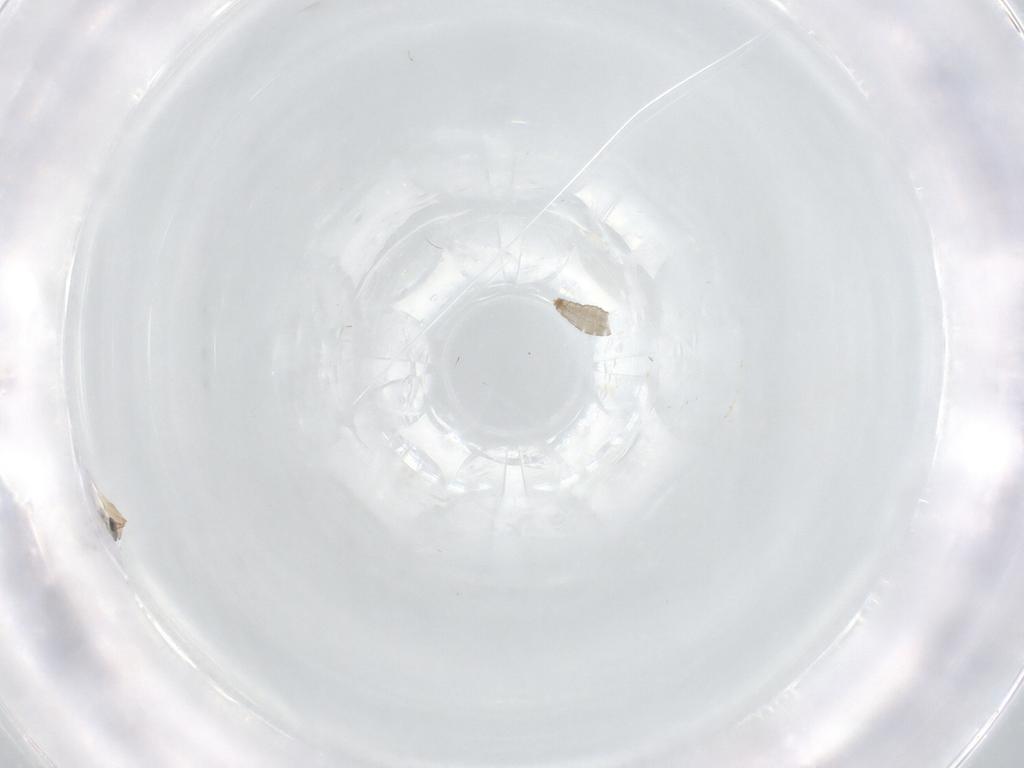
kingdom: Animalia
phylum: Arthropoda
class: Insecta
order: Diptera
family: Cecidomyiidae
